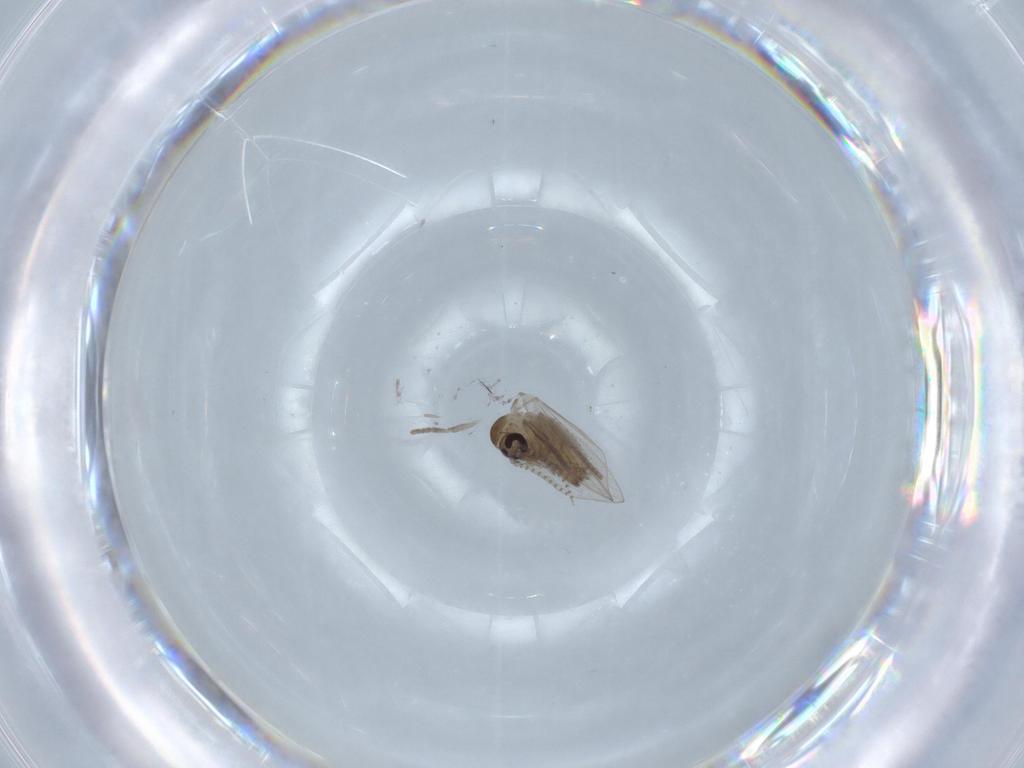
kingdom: Animalia
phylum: Arthropoda
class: Insecta
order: Diptera
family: Psychodidae
